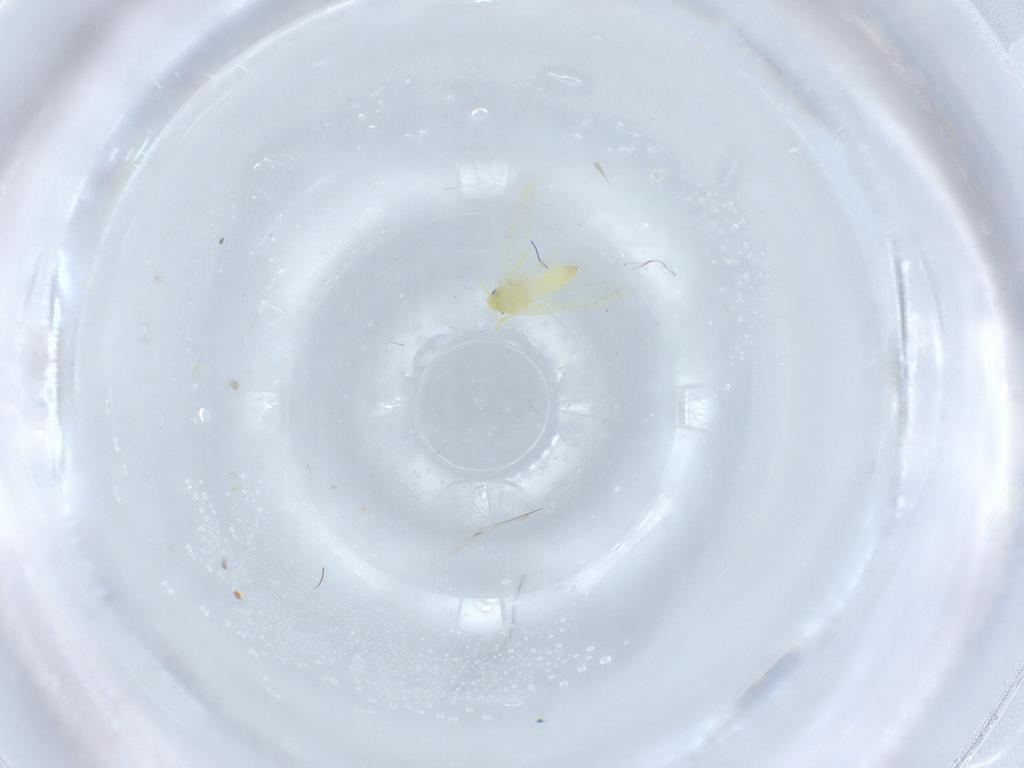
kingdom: Animalia
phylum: Arthropoda
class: Insecta
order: Hemiptera
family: Aleyrodidae
